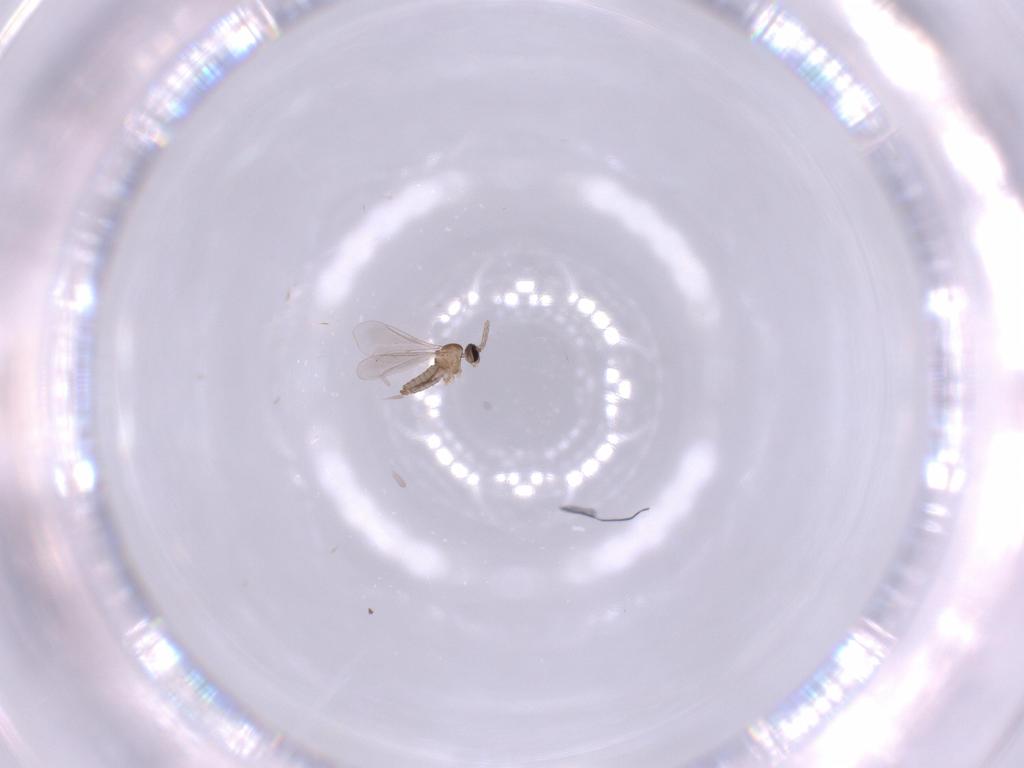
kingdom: Animalia
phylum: Arthropoda
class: Insecta
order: Diptera
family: Cecidomyiidae
